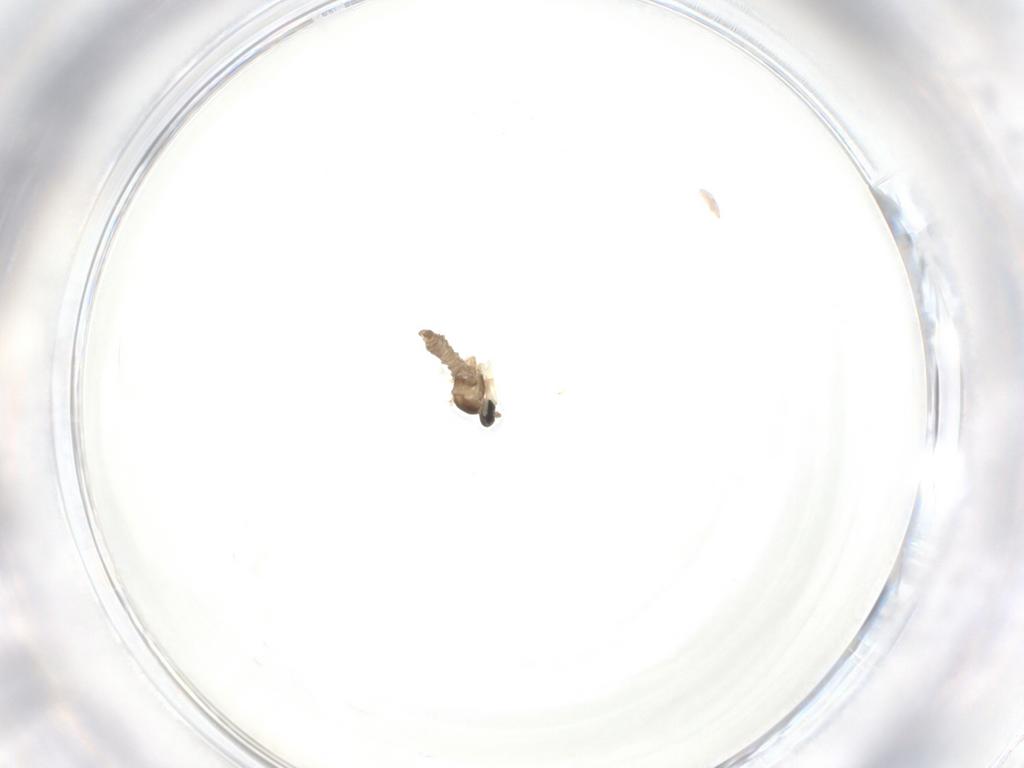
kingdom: Animalia
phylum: Arthropoda
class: Insecta
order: Diptera
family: Cecidomyiidae
